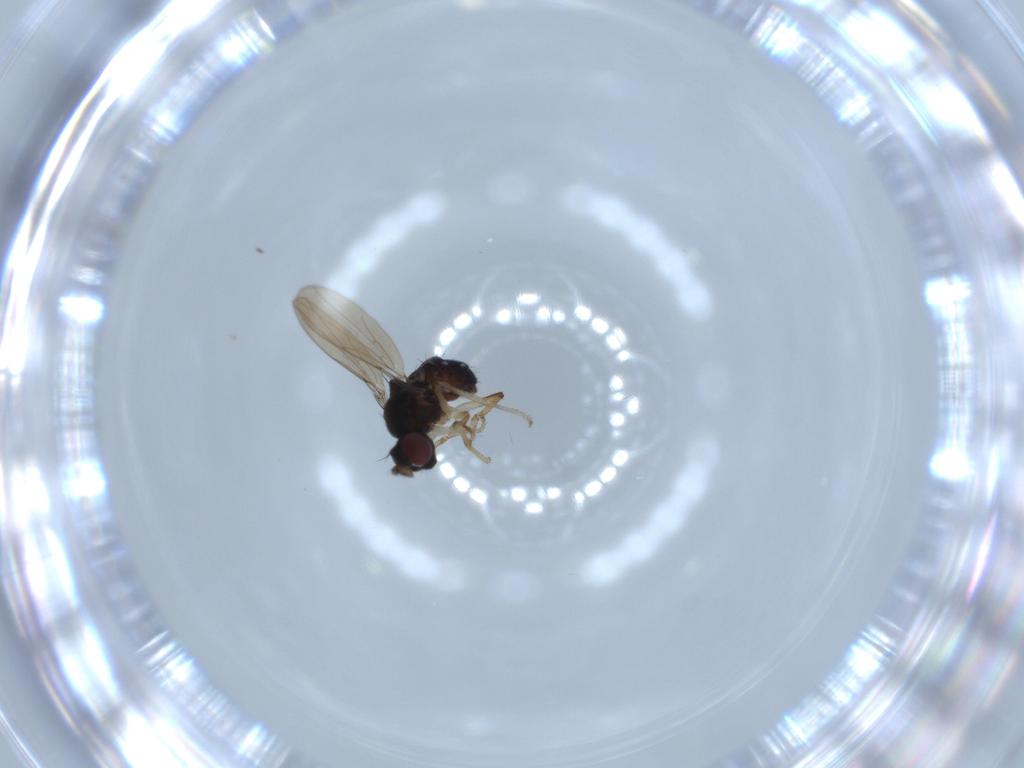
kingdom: Animalia
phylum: Arthropoda
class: Insecta
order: Diptera
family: Ephydridae
